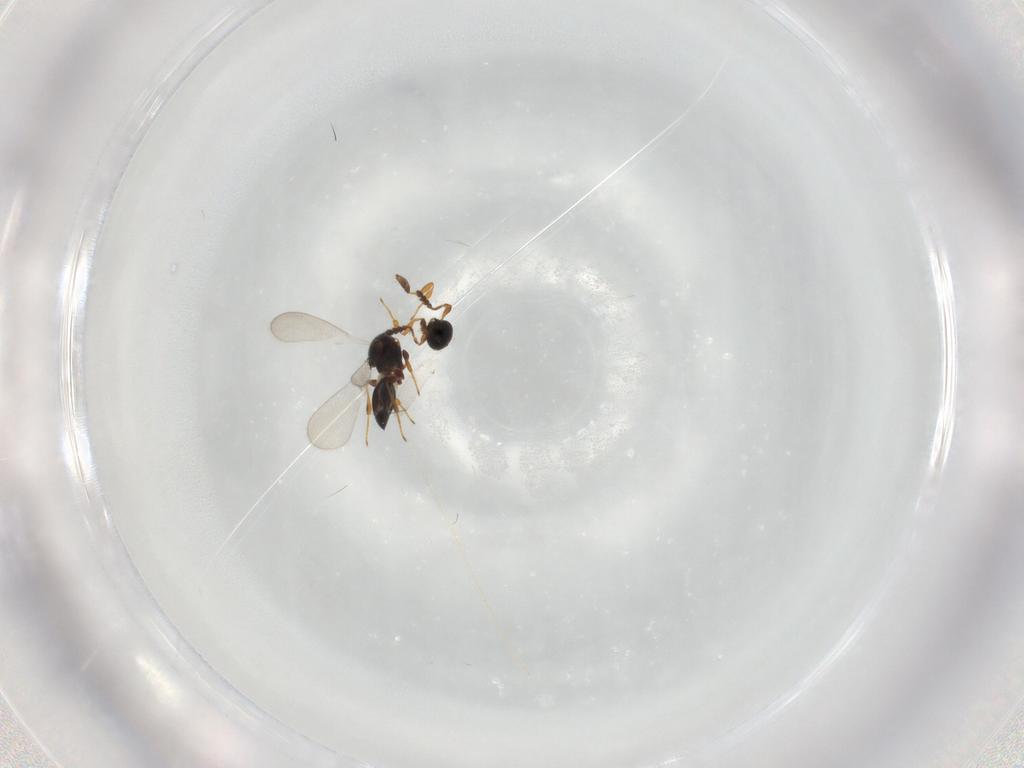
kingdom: Animalia
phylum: Arthropoda
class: Insecta
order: Hymenoptera
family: Platygastridae
